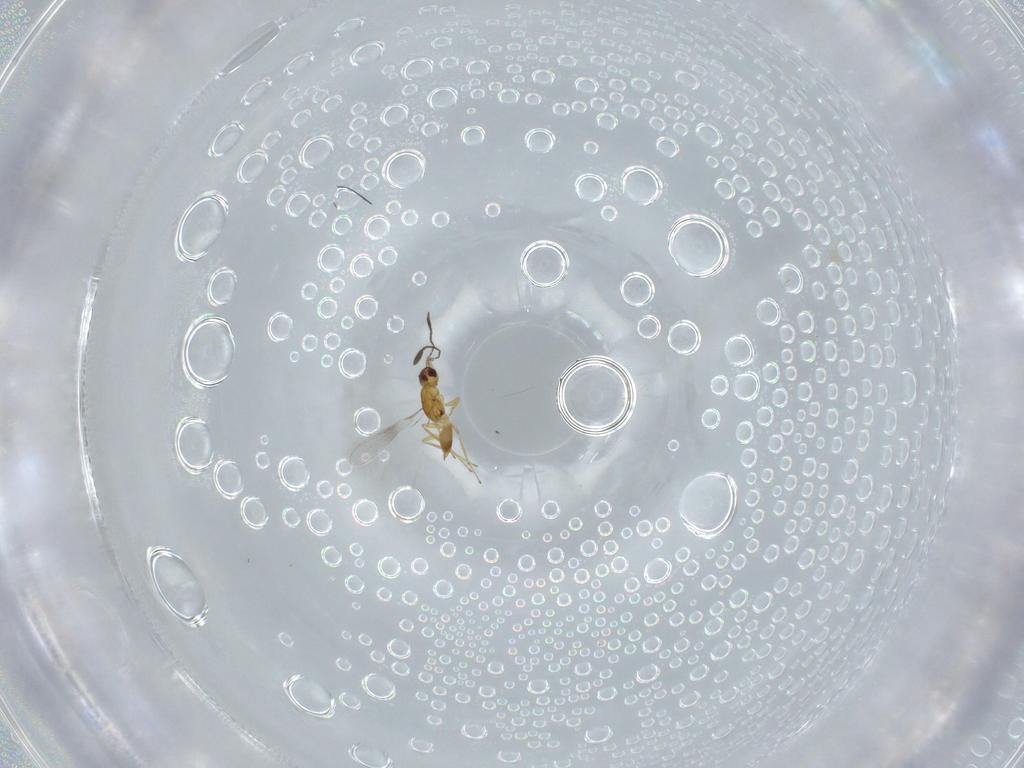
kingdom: Animalia
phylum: Arthropoda
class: Insecta
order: Hymenoptera
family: Mymaridae
